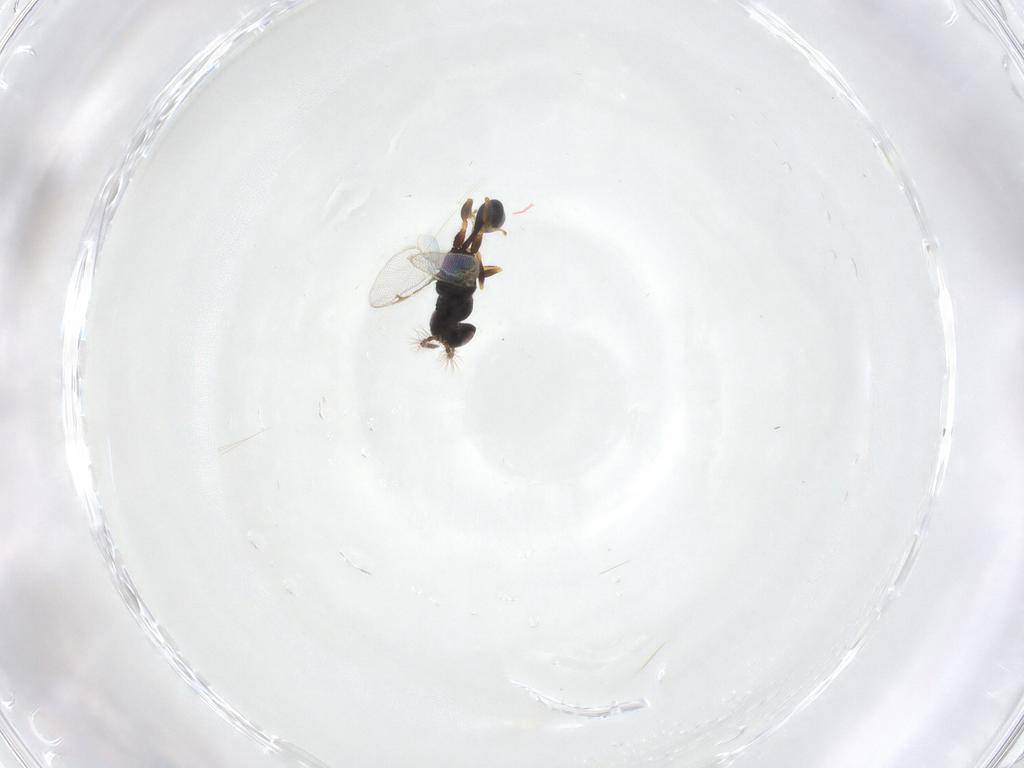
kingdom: Animalia
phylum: Arthropoda
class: Insecta
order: Hymenoptera
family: Eurytomidae
